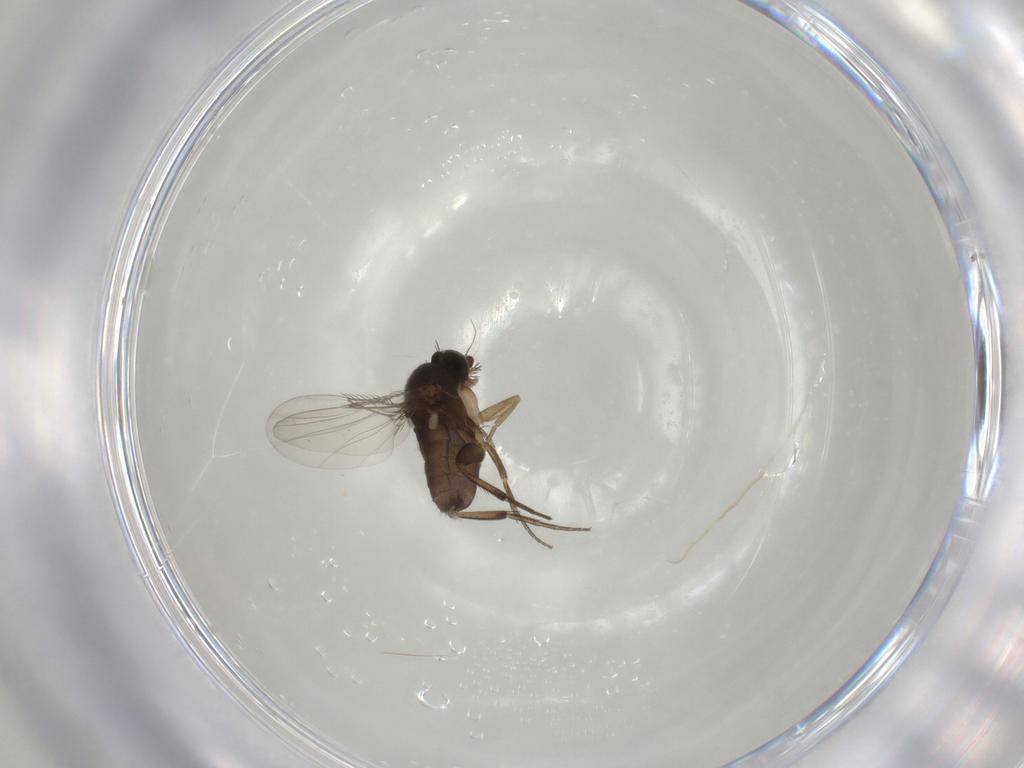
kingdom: Animalia
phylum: Arthropoda
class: Insecta
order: Diptera
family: Phoridae
